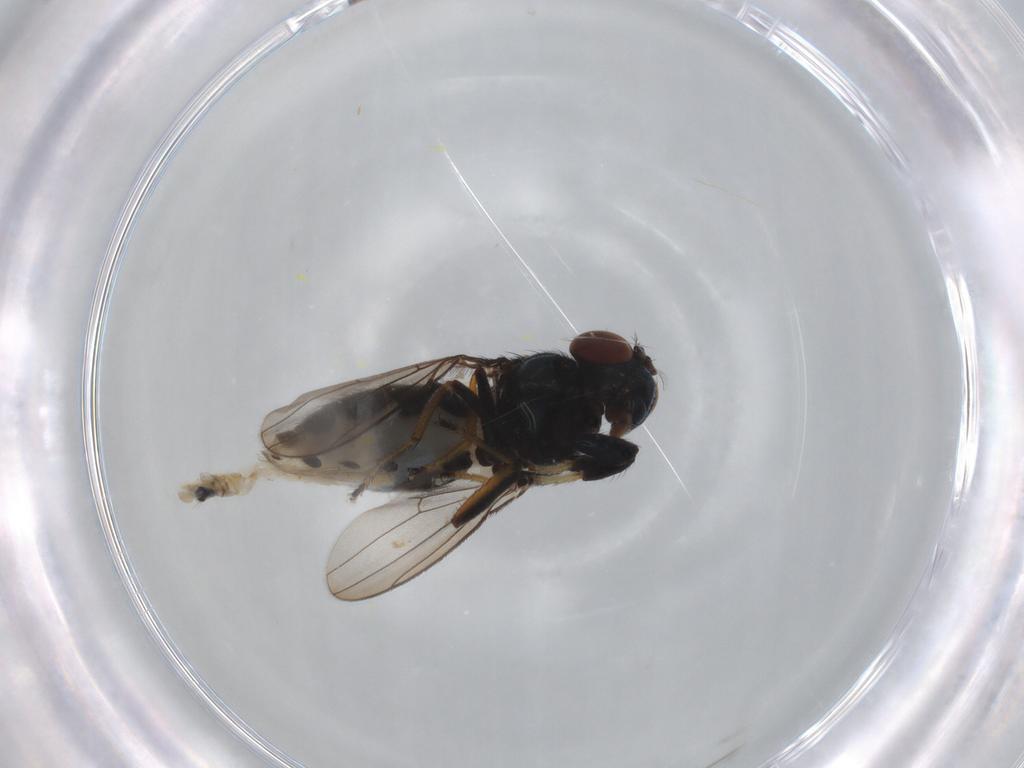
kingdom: Animalia
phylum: Arthropoda
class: Insecta
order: Diptera
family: Ephydridae
